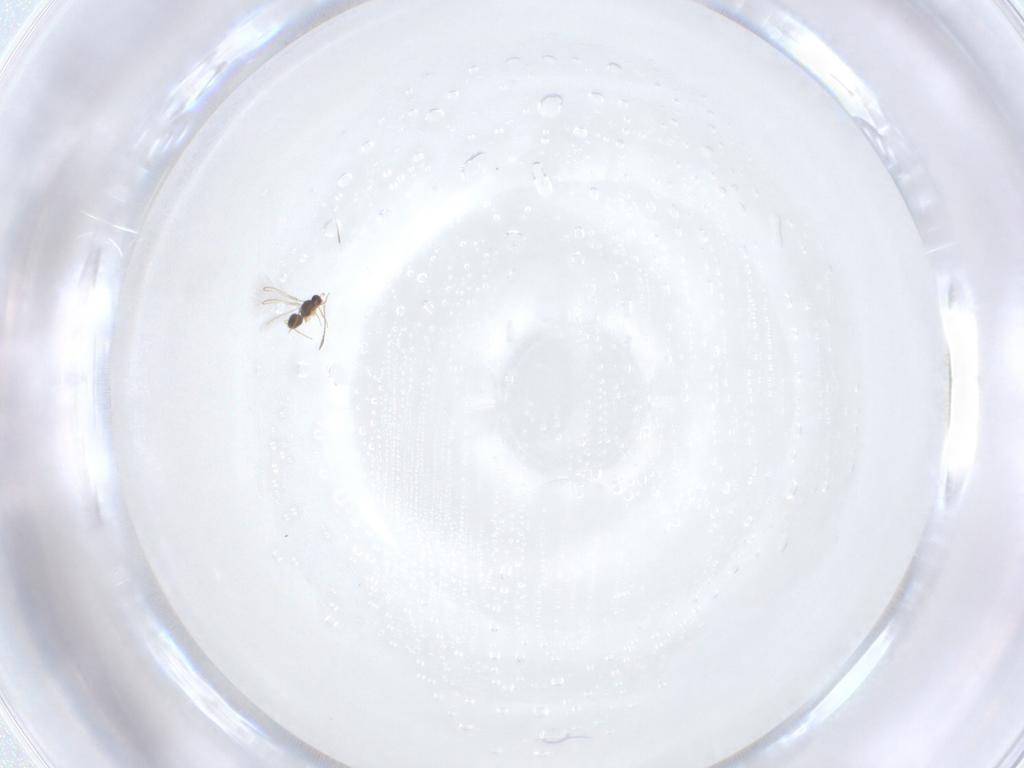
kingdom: Animalia
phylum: Arthropoda
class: Insecta
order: Hymenoptera
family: Mymaridae
